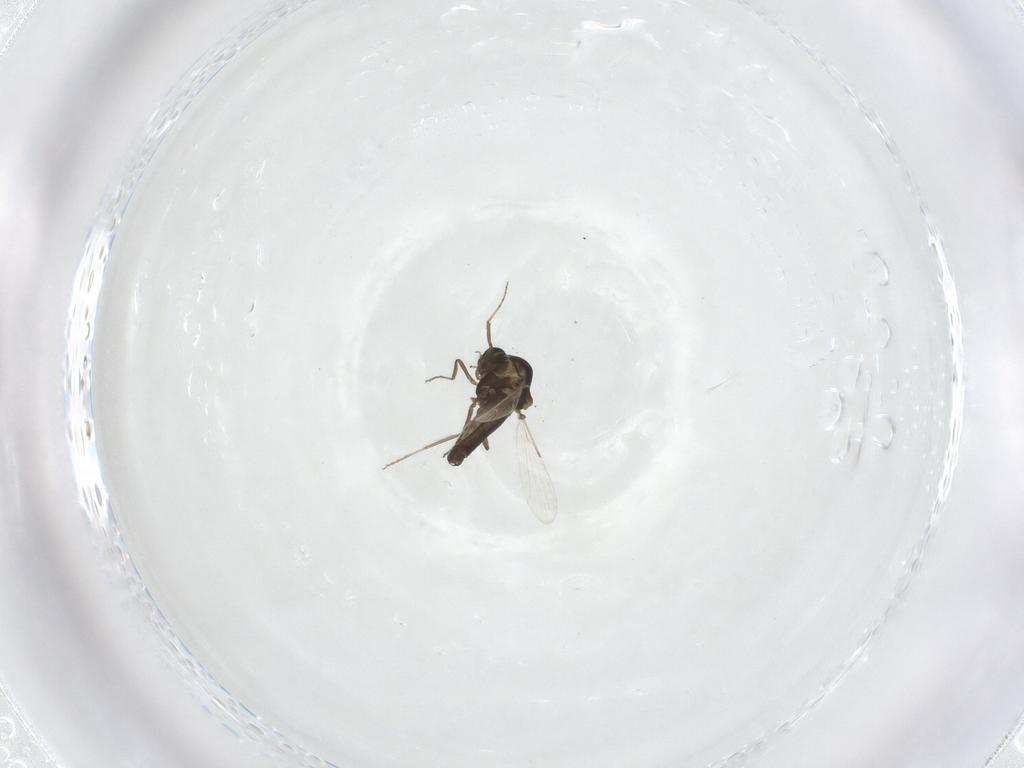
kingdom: Animalia
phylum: Arthropoda
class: Insecta
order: Diptera
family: Ceratopogonidae
